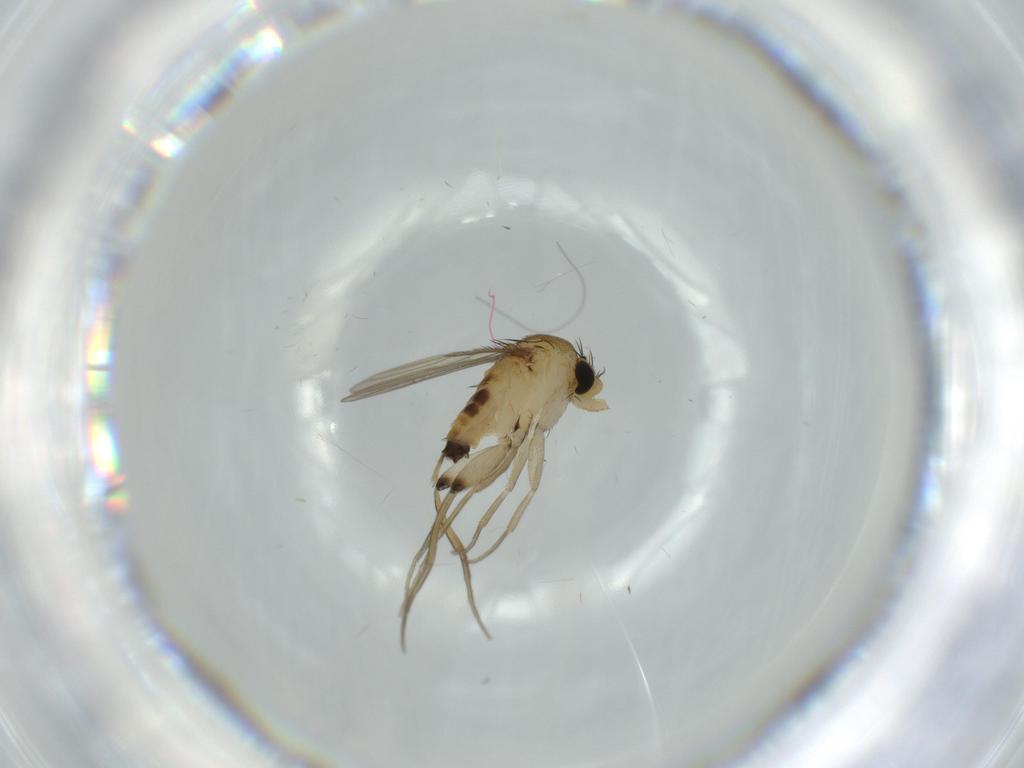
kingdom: Animalia
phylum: Arthropoda
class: Insecta
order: Diptera
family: Phoridae
